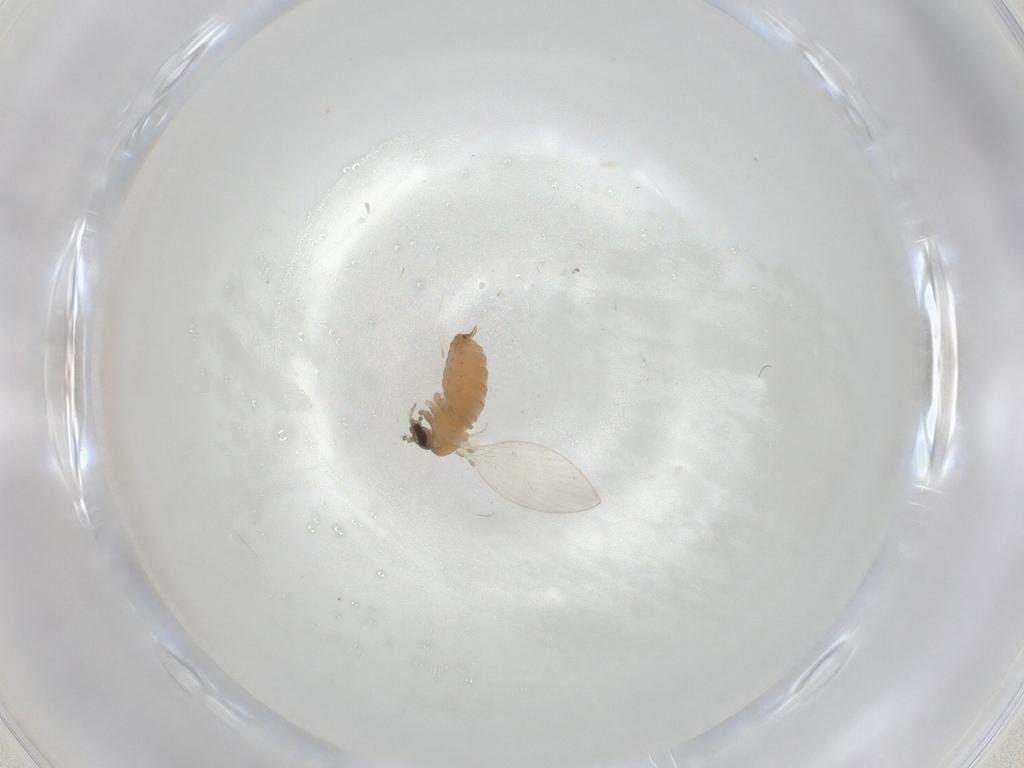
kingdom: Animalia
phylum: Arthropoda
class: Insecta
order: Diptera
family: Psychodidae
